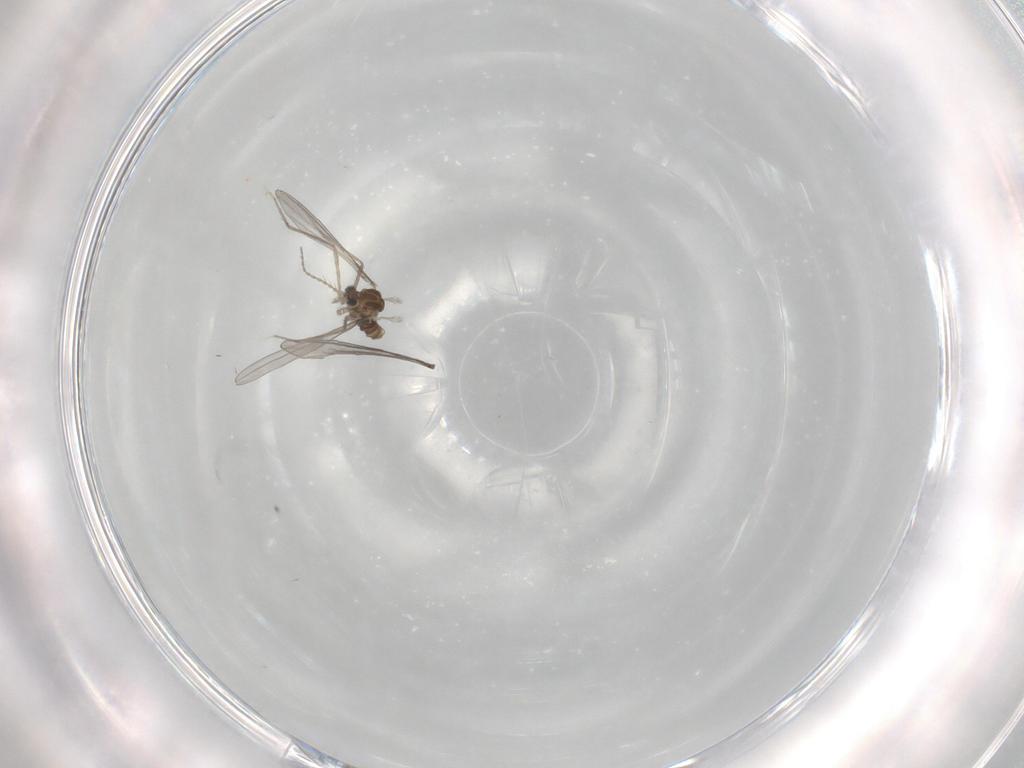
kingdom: Animalia
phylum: Arthropoda
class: Insecta
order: Diptera
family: Cecidomyiidae
